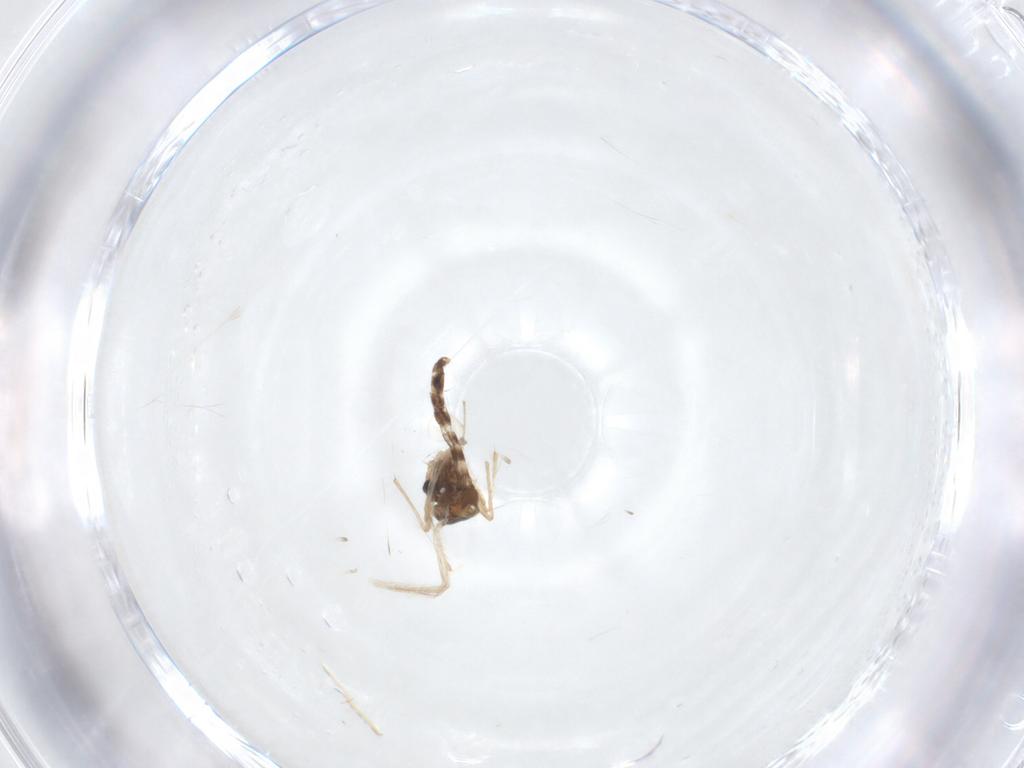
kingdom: Animalia
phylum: Arthropoda
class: Insecta
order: Diptera
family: Chironomidae
